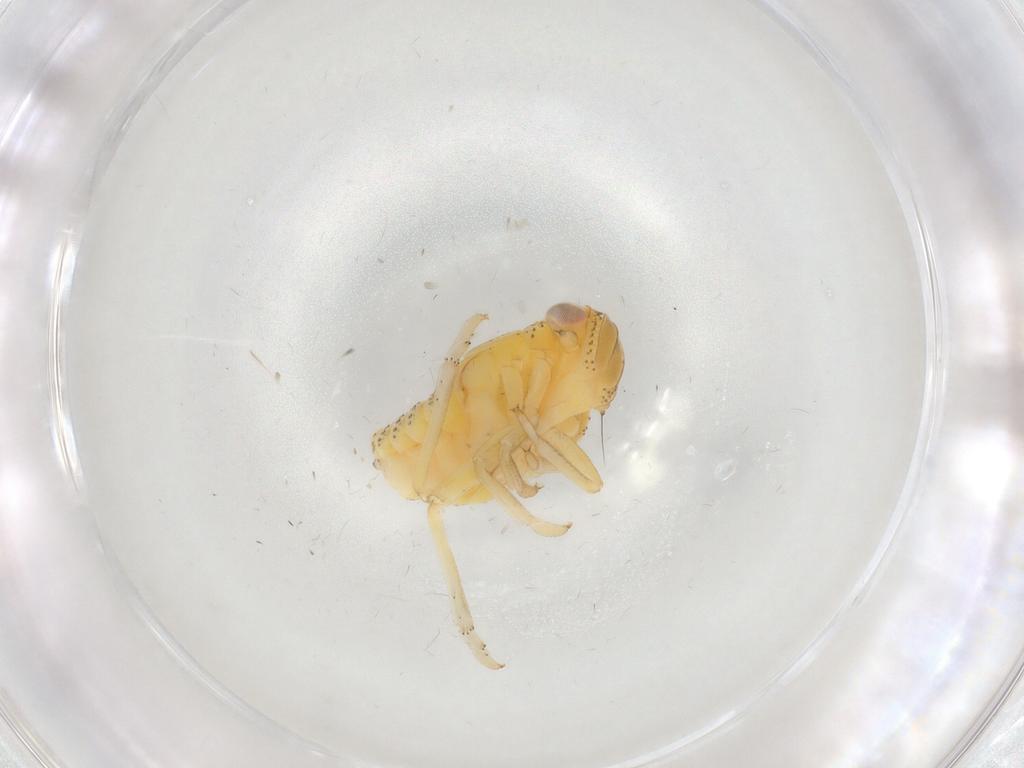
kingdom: Animalia
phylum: Arthropoda
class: Insecta
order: Hemiptera
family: Tropiduchidae
